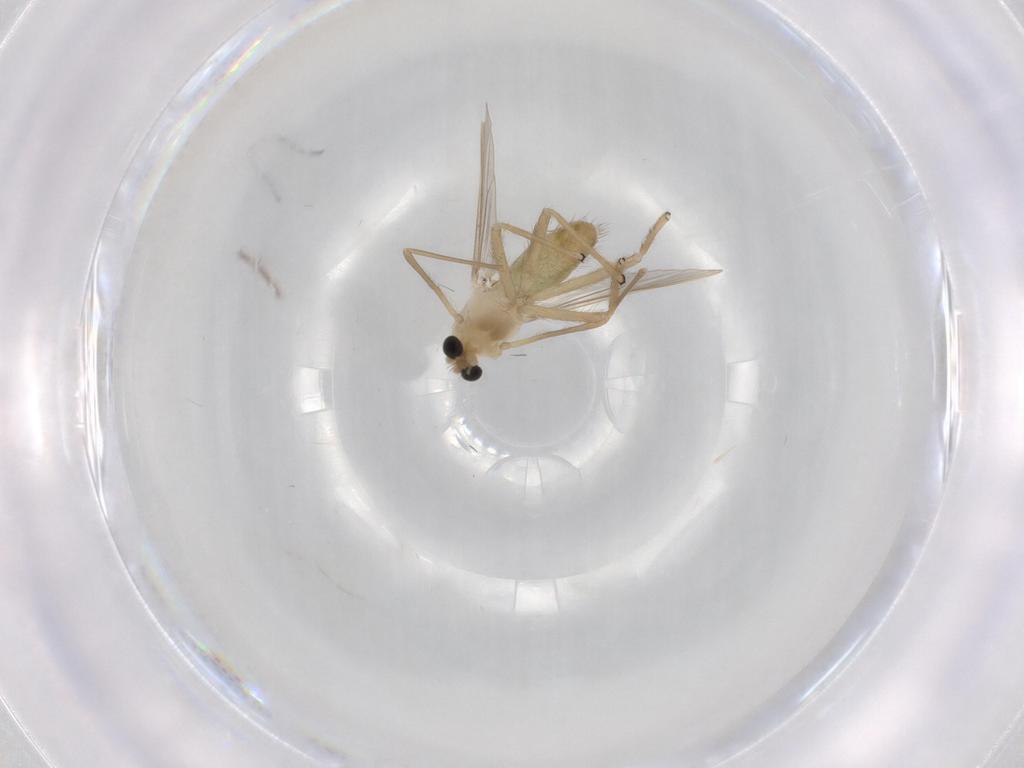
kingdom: Animalia
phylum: Arthropoda
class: Insecta
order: Diptera
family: Chironomidae
